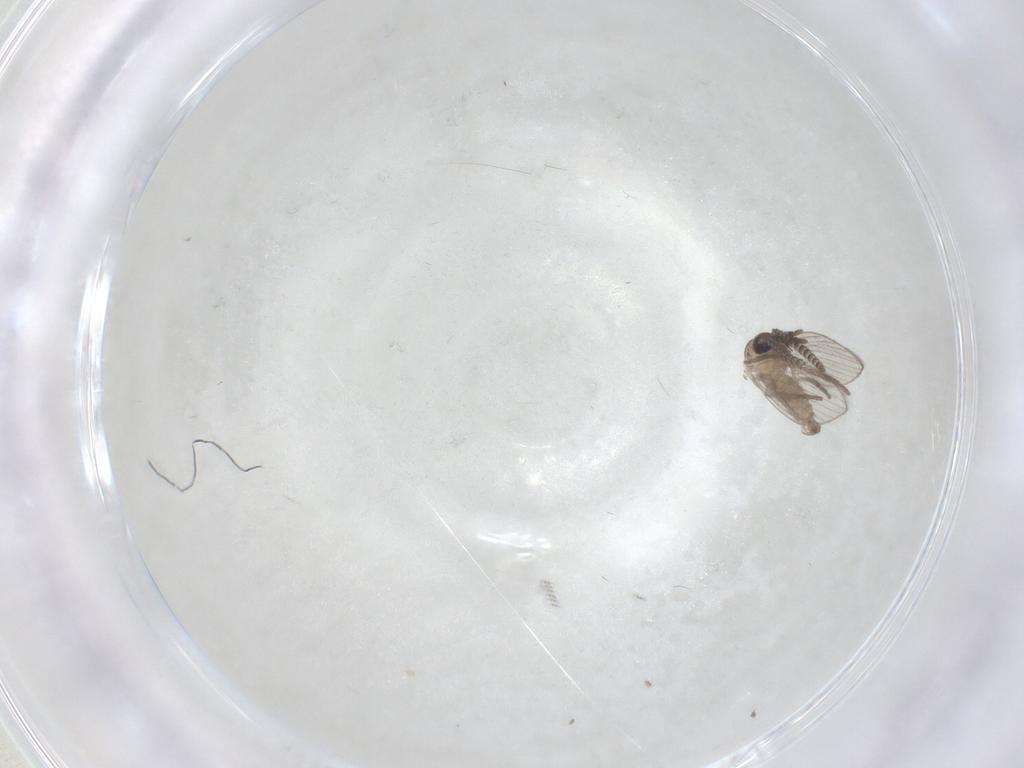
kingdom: Animalia
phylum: Arthropoda
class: Insecta
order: Diptera
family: Psychodidae
